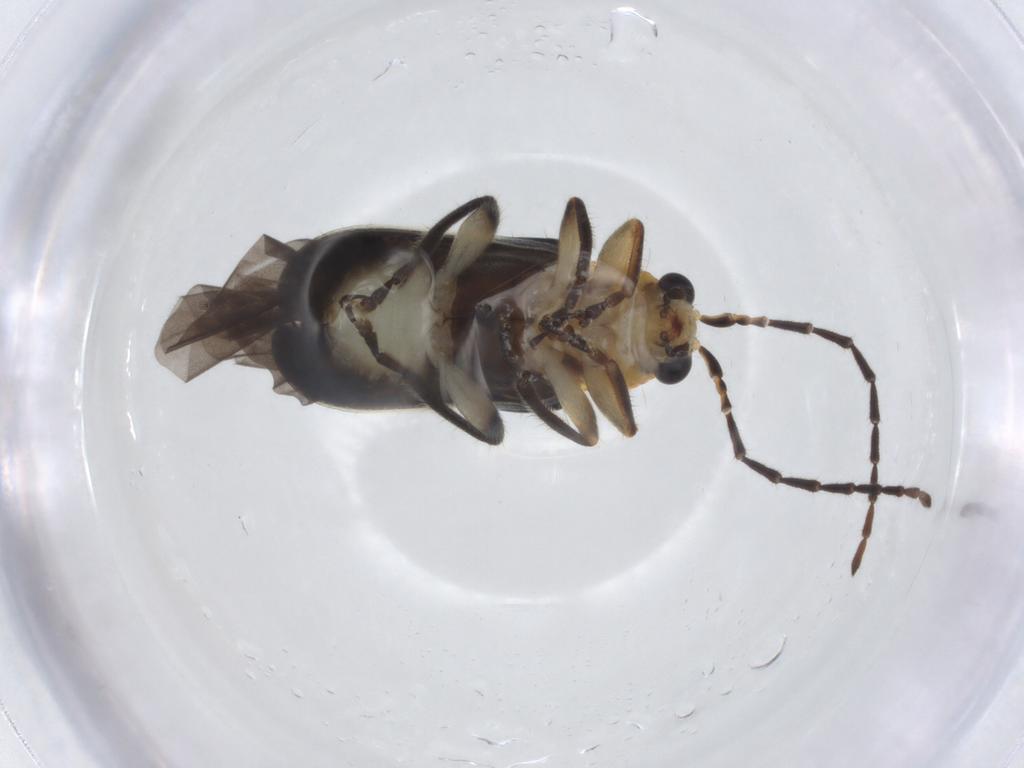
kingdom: Animalia
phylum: Arthropoda
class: Insecta
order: Coleoptera
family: Chrysomelidae
